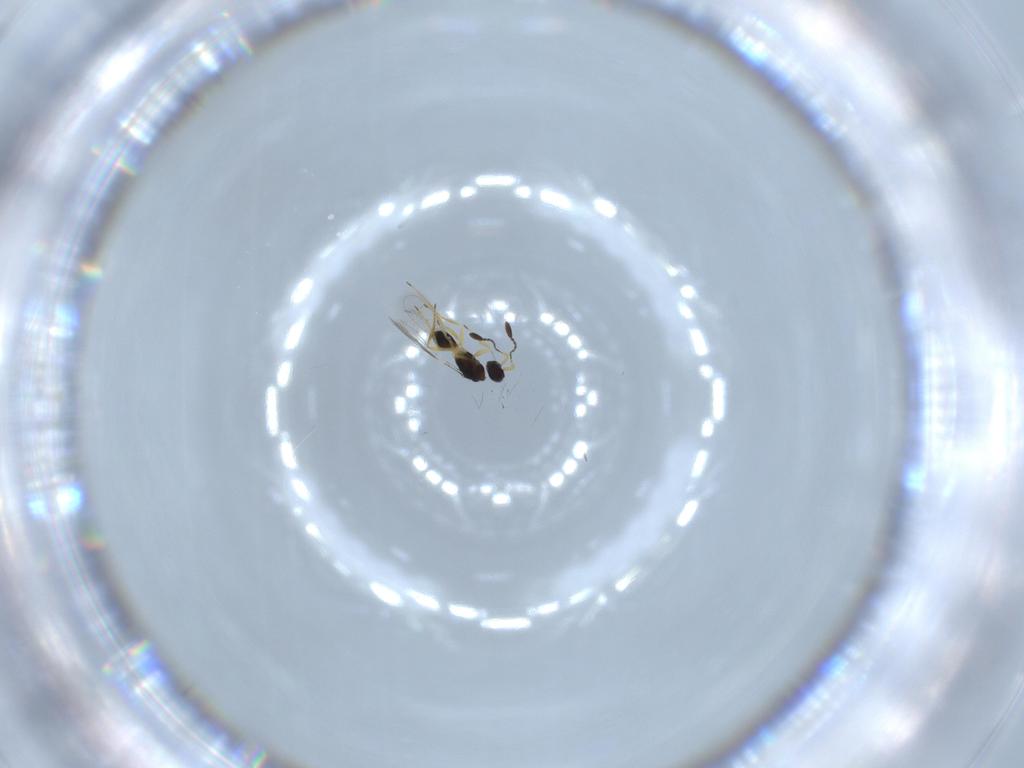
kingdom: Animalia
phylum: Arthropoda
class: Insecta
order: Hymenoptera
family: Mymaridae
